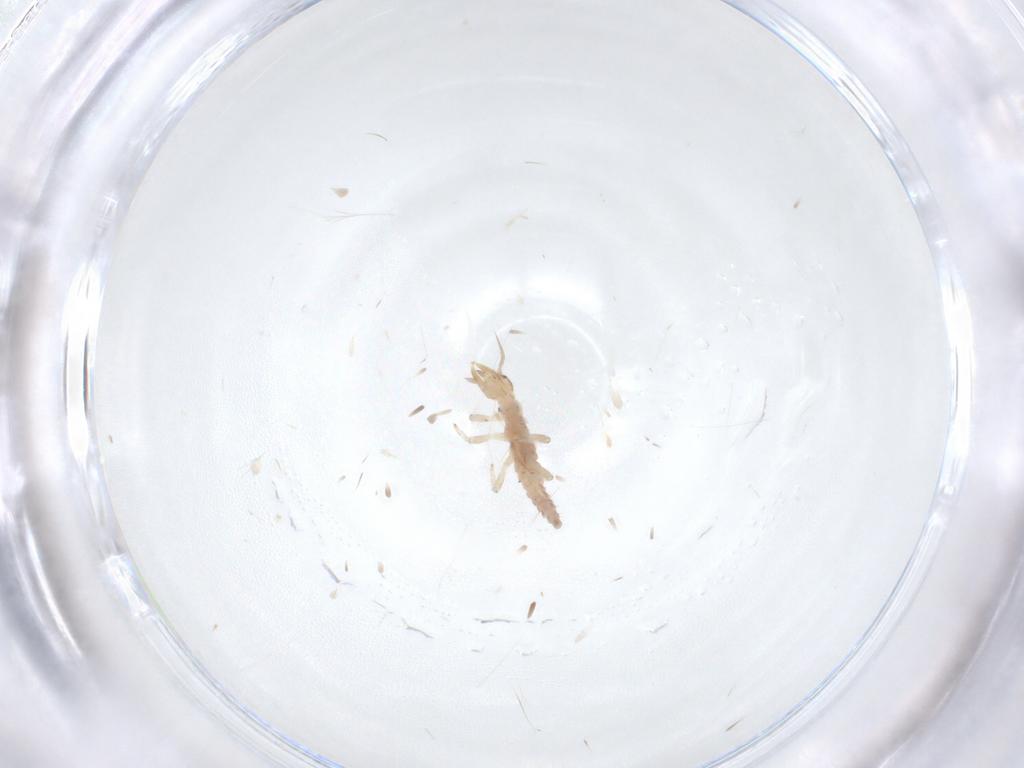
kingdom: Animalia
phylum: Arthropoda
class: Insecta
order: Neuroptera
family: Hemerobiidae
